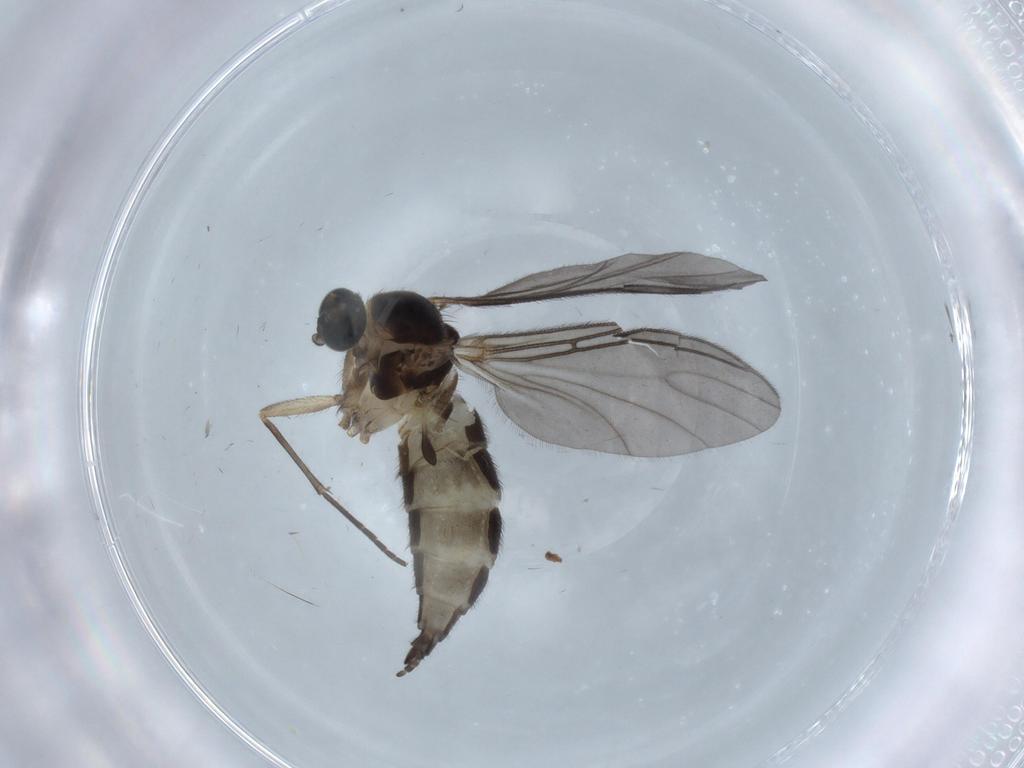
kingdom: Animalia
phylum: Arthropoda
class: Insecta
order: Diptera
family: Sciaridae
